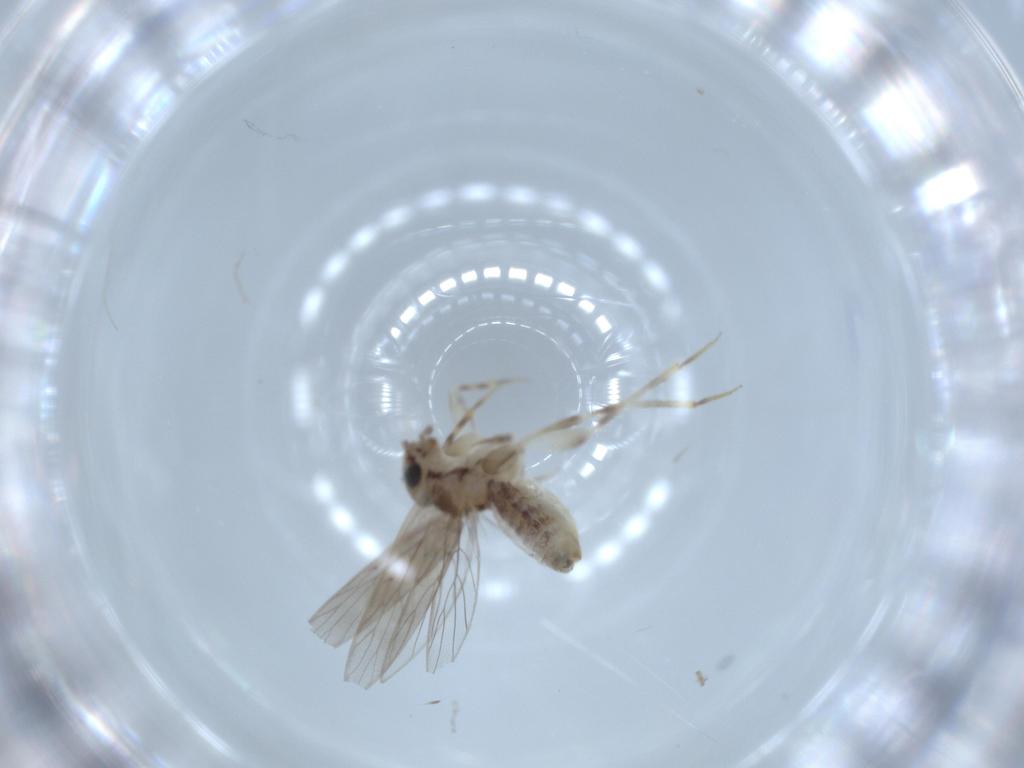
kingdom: Animalia
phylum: Arthropoda
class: Insecta
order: Psocodea
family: Lepidopsocidae
